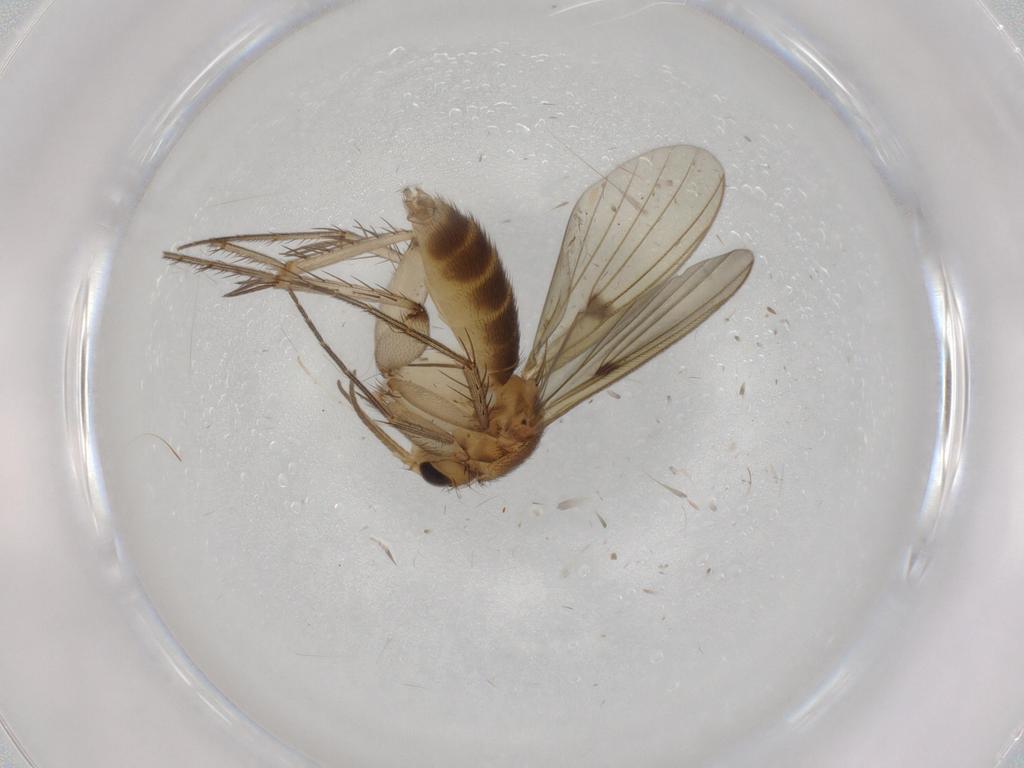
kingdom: Animalia
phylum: Arthropoda
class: Insecta
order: Diptera
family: Mycetophilidae
